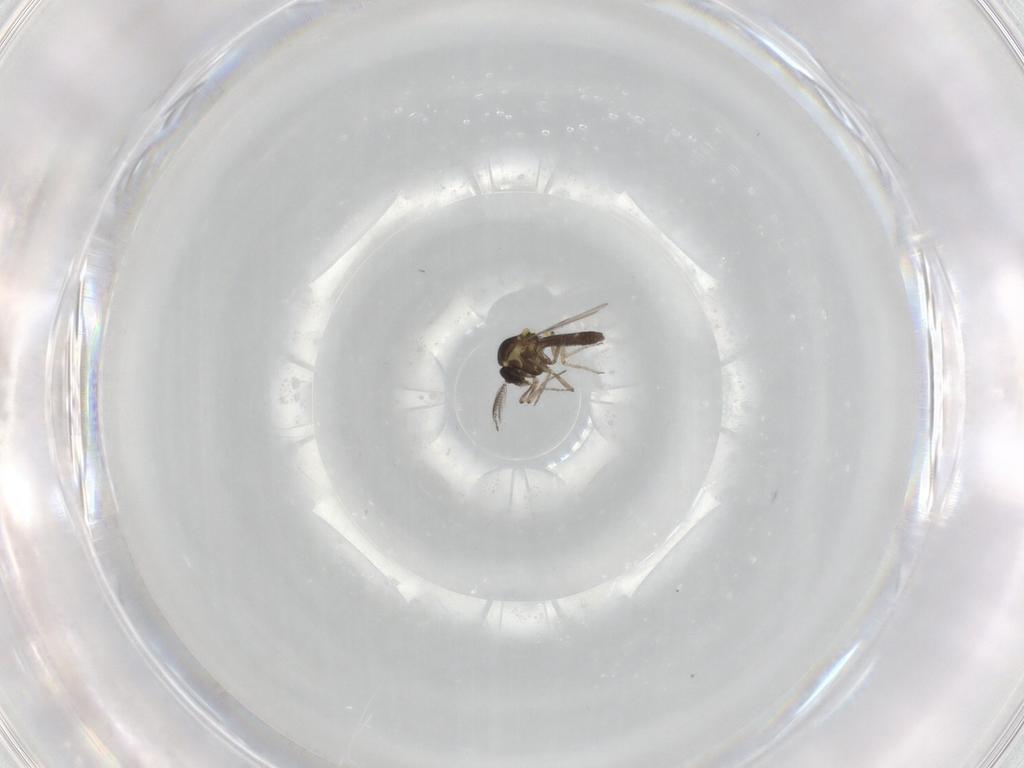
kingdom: Animalia
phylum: Arthropoda
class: Insecta
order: Diptera
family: Ceratopogonidae
